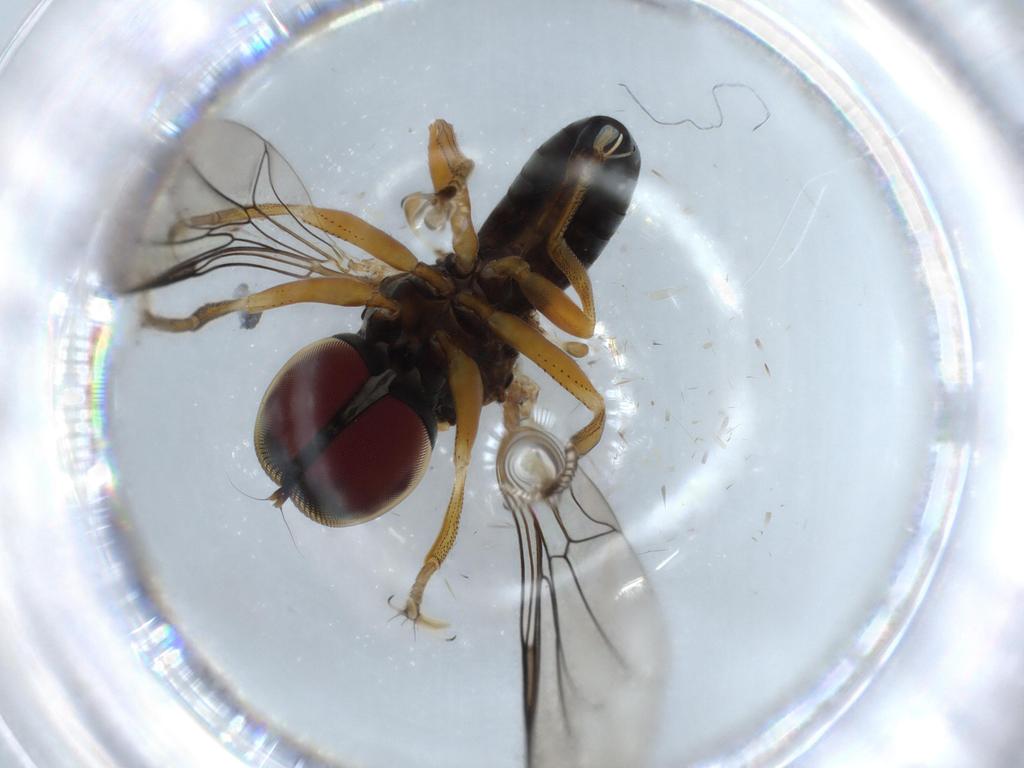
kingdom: Animalia
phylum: Arthropoda
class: Insecta
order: Diptera
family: Pipunculidae
